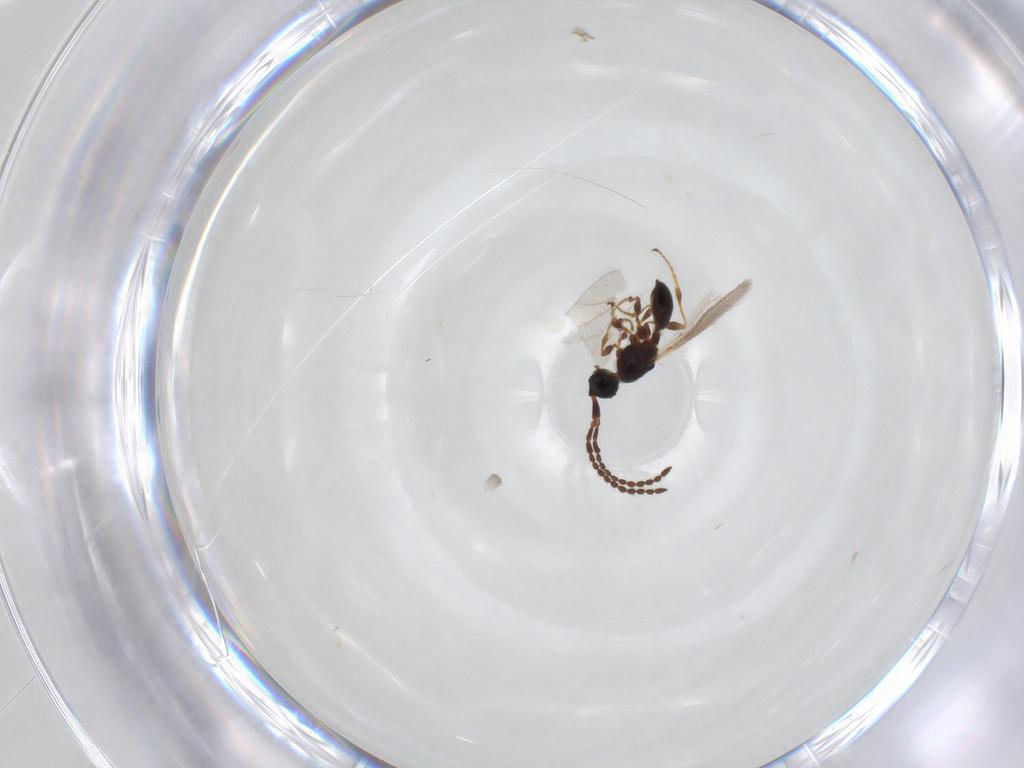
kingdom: Animalia
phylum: Arthropoda
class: Insecta
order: Hymenoptera
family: Diapriidae
